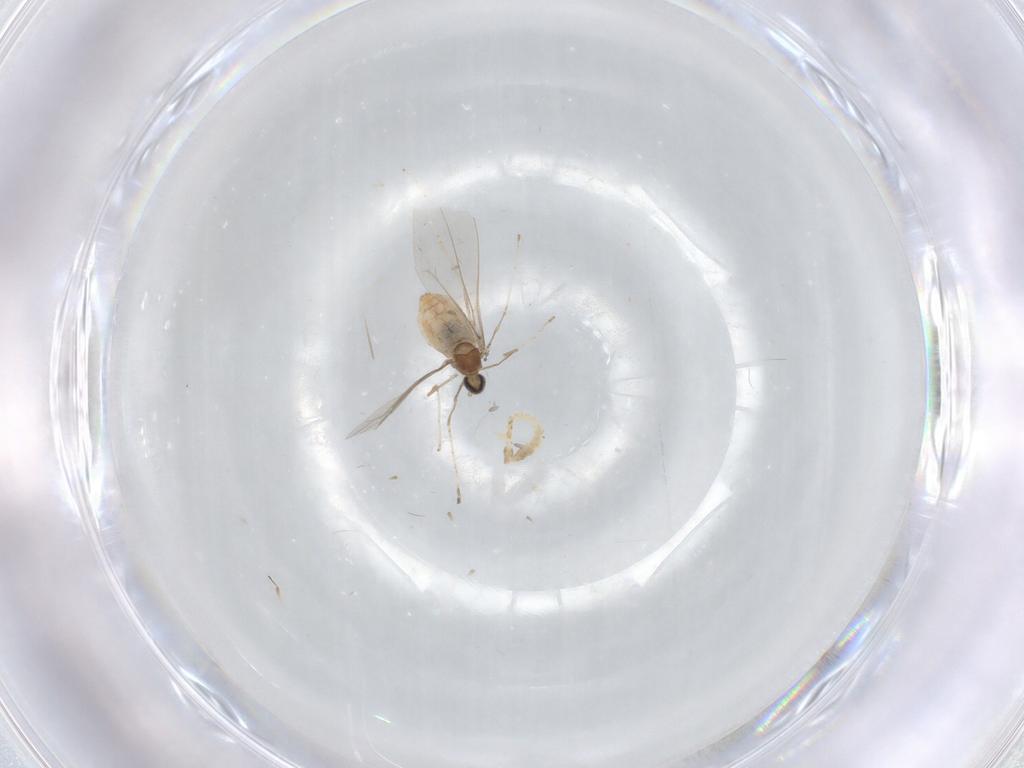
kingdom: Animalia
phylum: Arthropoda
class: Insecta
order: Diptera
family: Cecidomyiidae
